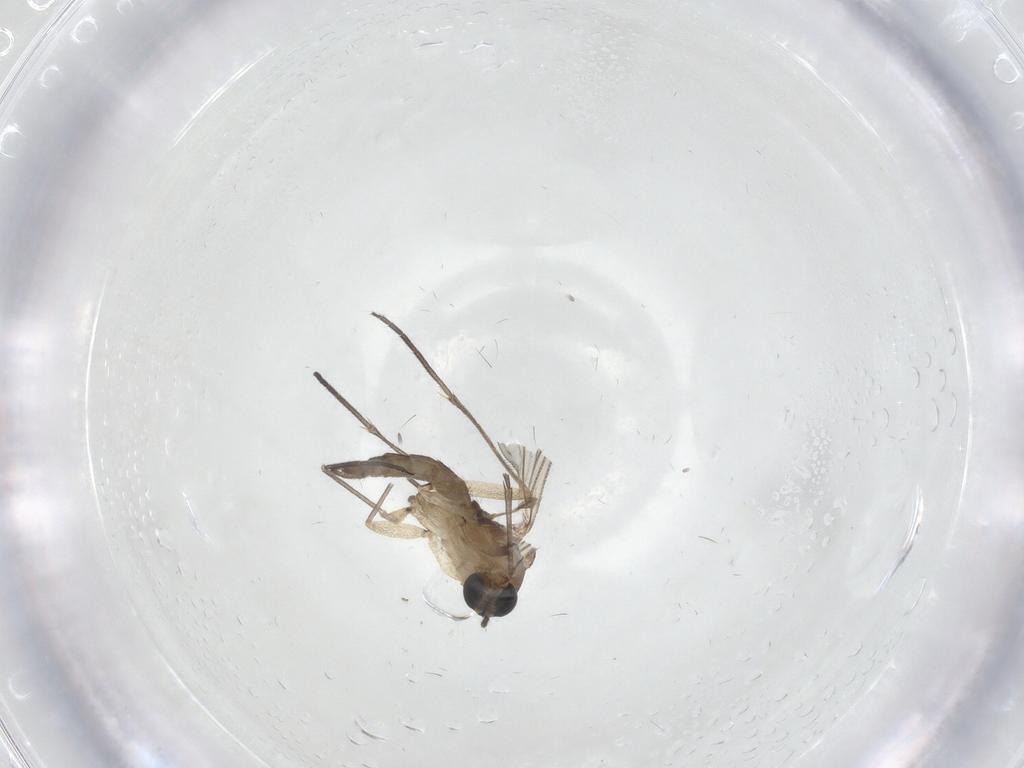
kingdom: Animalia
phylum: Arthropoda
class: Insecta
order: Diptera
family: Sciaridae
